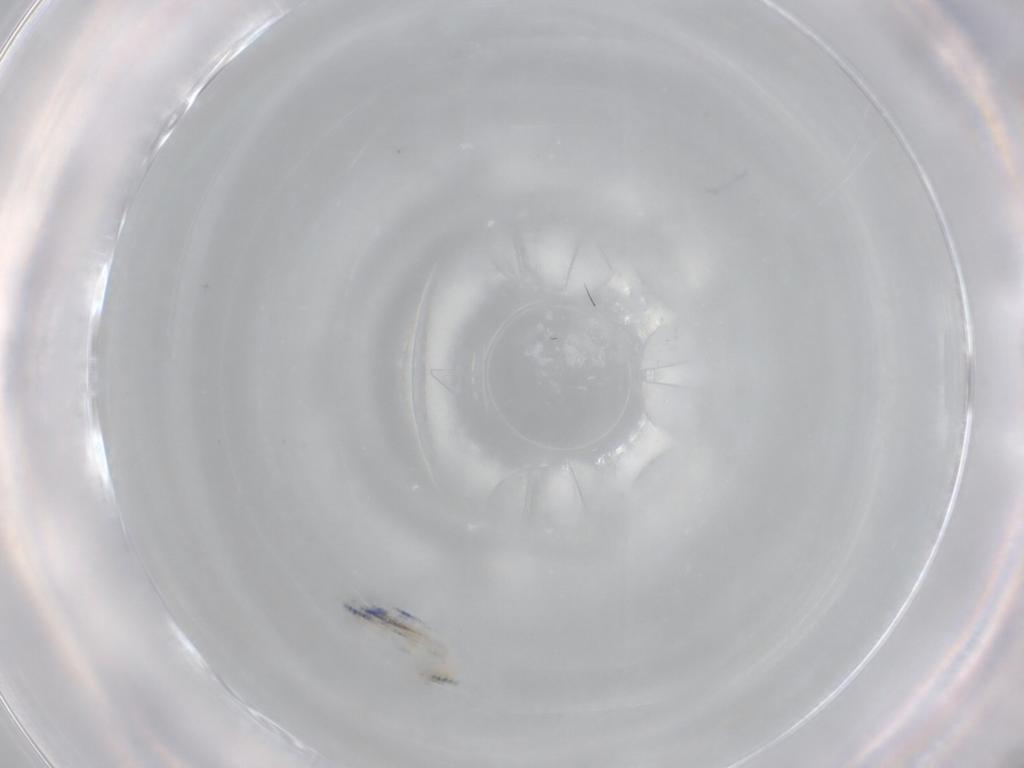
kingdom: Animalia
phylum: Arthropoda
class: Collembola
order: Entomobryomorpha
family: Entomobryidae
